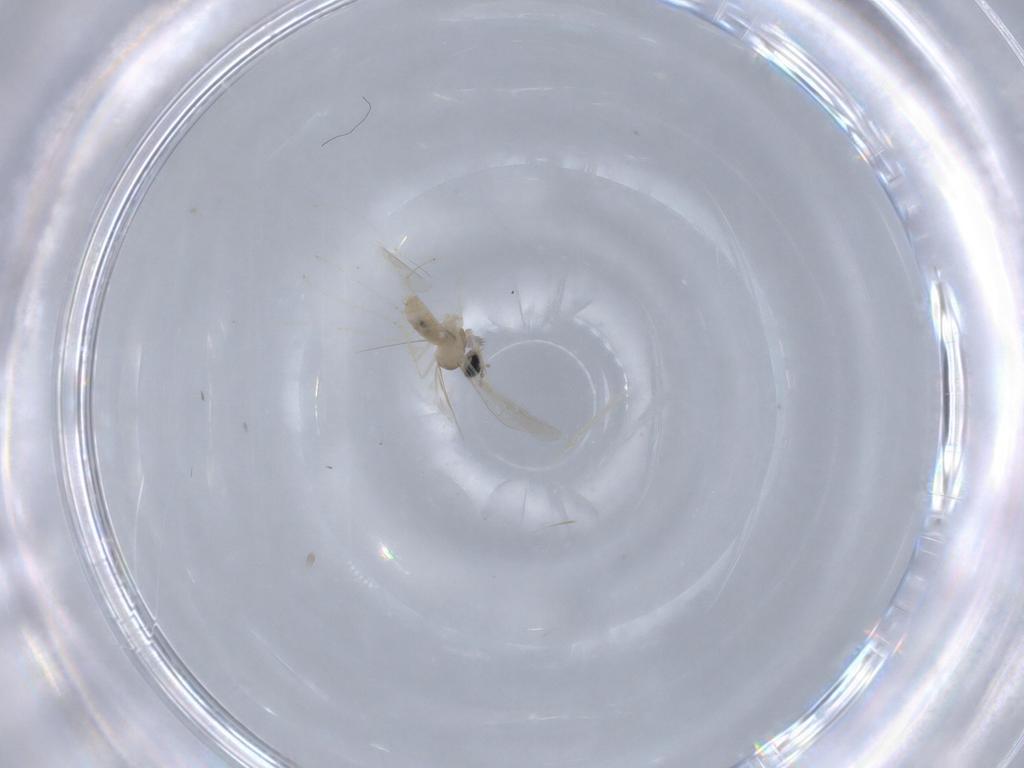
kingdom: Animalia
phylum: Arthropoda
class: Insecta
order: Diptera
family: Cecidomyiidae
